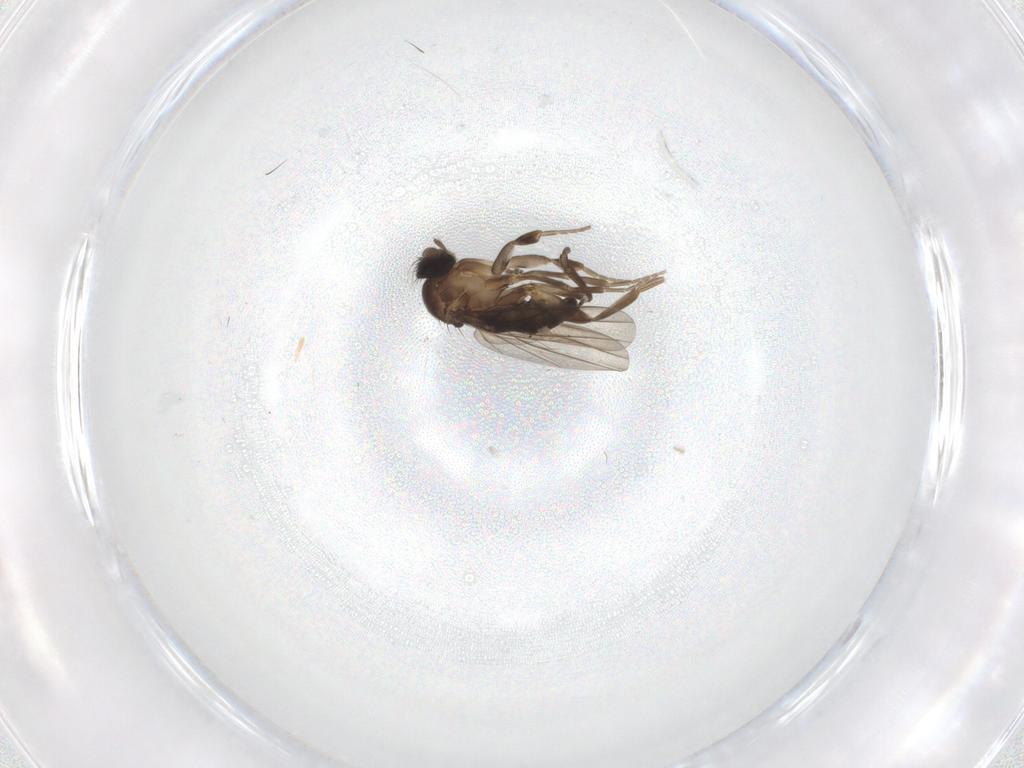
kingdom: Animalia
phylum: Arthropoda
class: Insecta
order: Diptera
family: Phoridae
